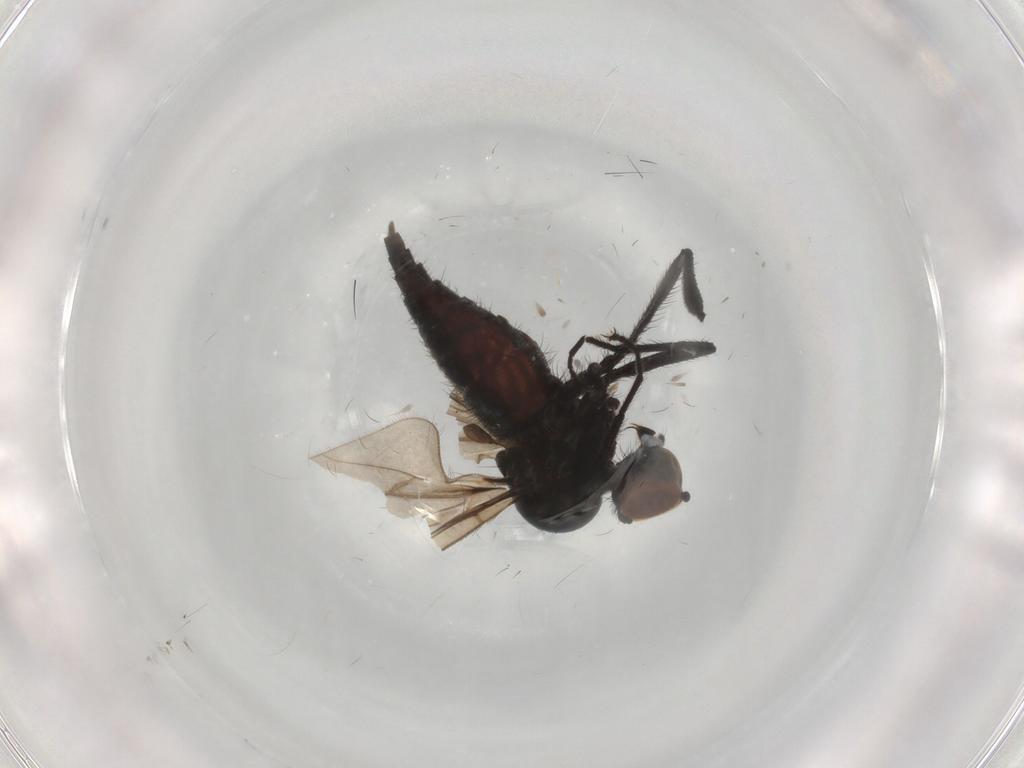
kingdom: Animalia
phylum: Arthropoda
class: Insecta
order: Diptera
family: Hybotidae
